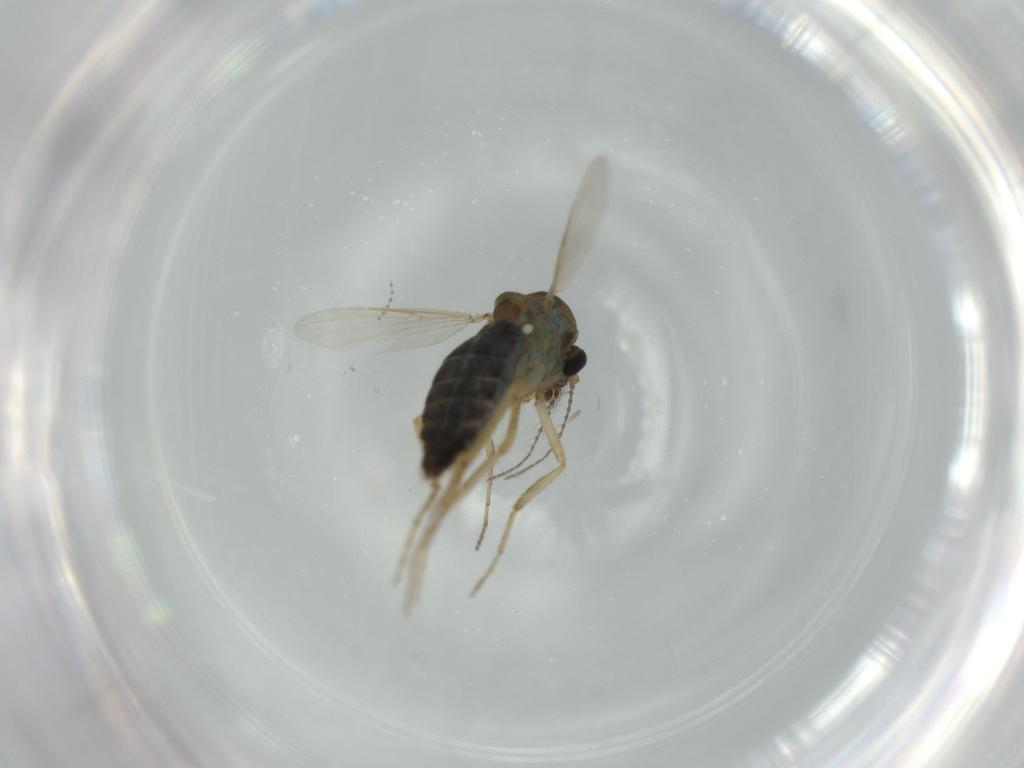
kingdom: Animalia
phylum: Arthropoda
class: Insecta
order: Diptera
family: Ceratopogonidae
